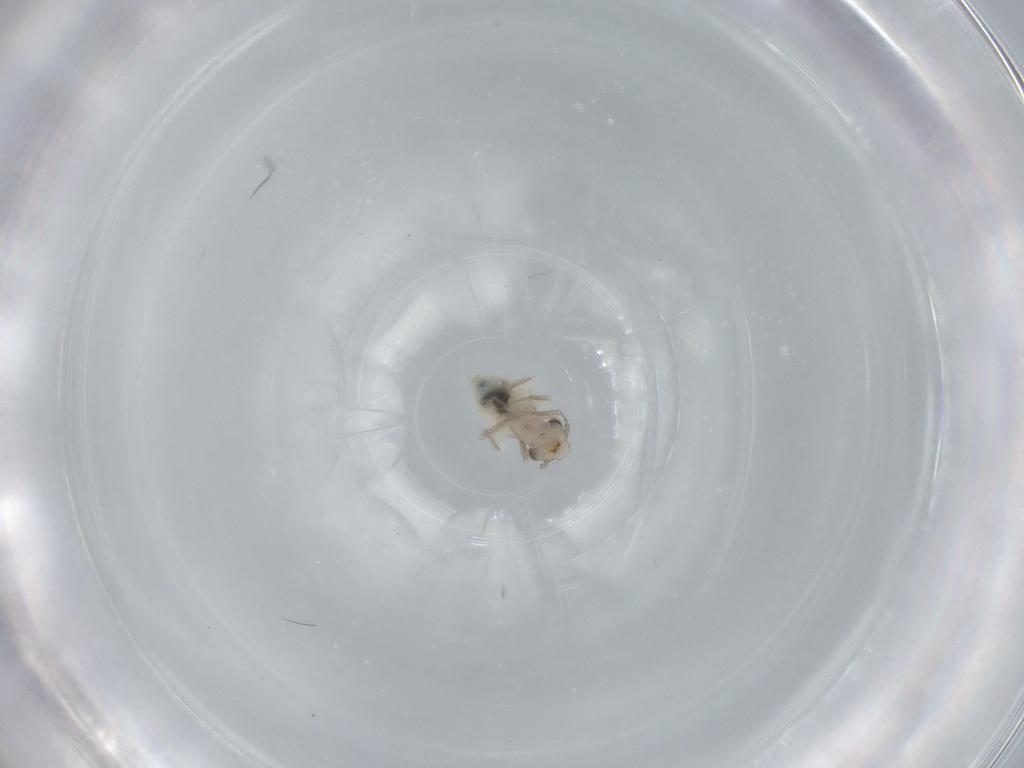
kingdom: Animalia
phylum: Arthropoda
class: Insecta
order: Psocodea
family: Lepidopsocidae
